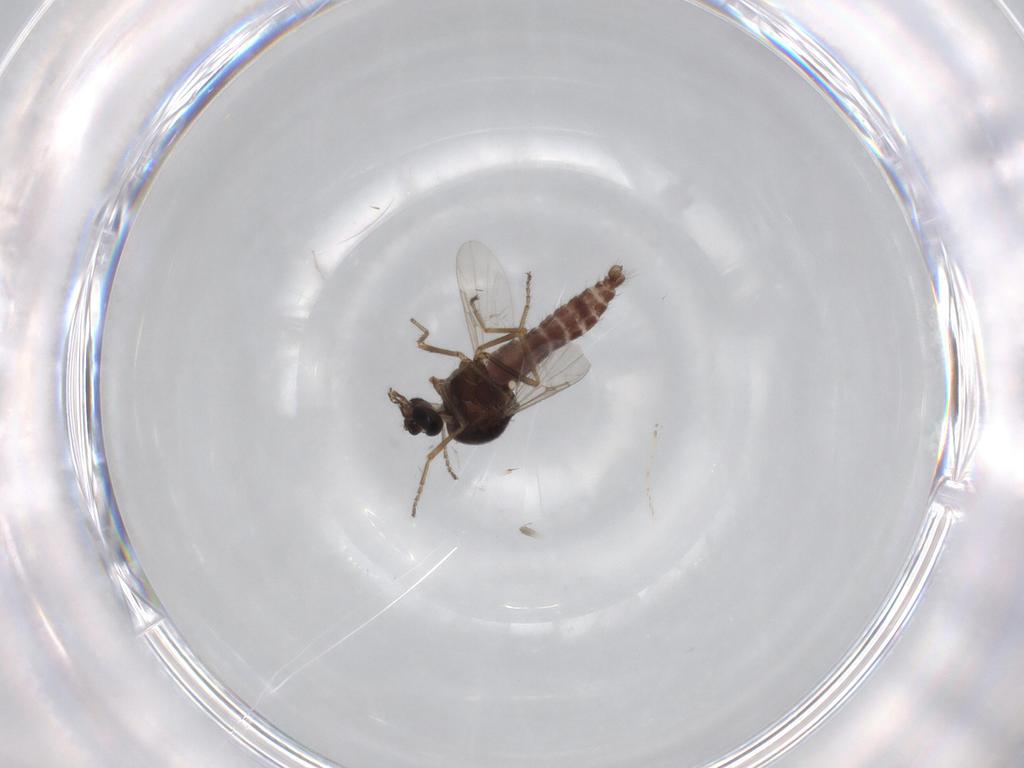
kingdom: Animalia
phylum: Arthropoda
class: Insecta
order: Diptera
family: Ceratopogonidae
